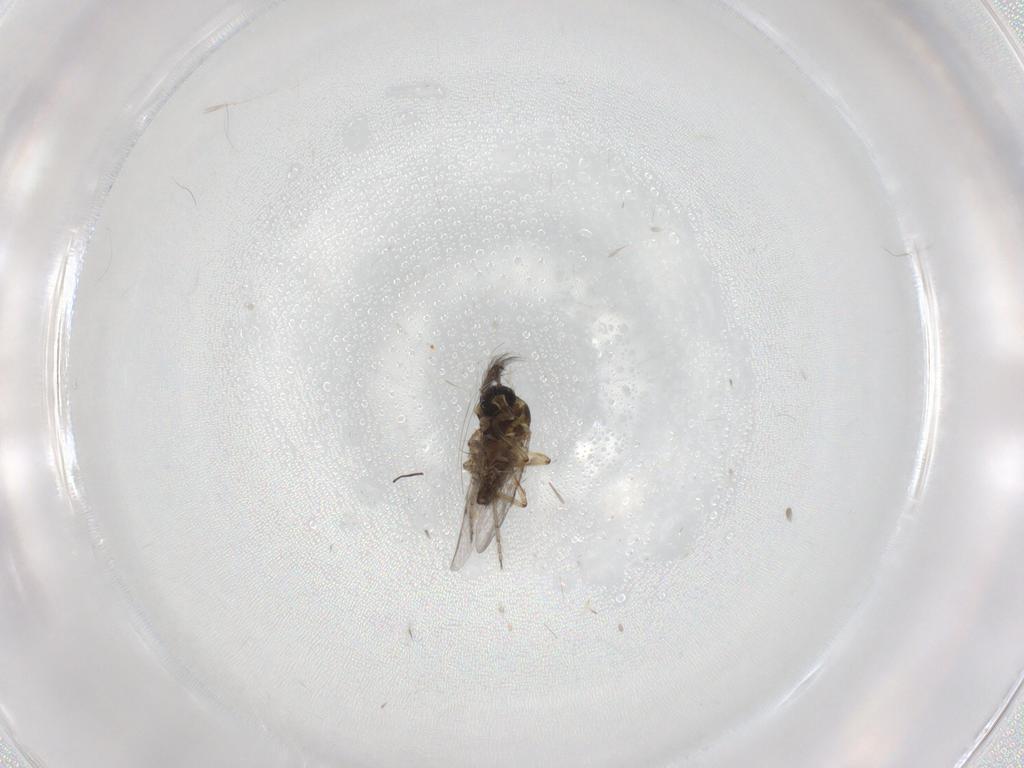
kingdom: Animalia
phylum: Arthropoda
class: Insecta
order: Diptera
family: Ceratopogonidae
